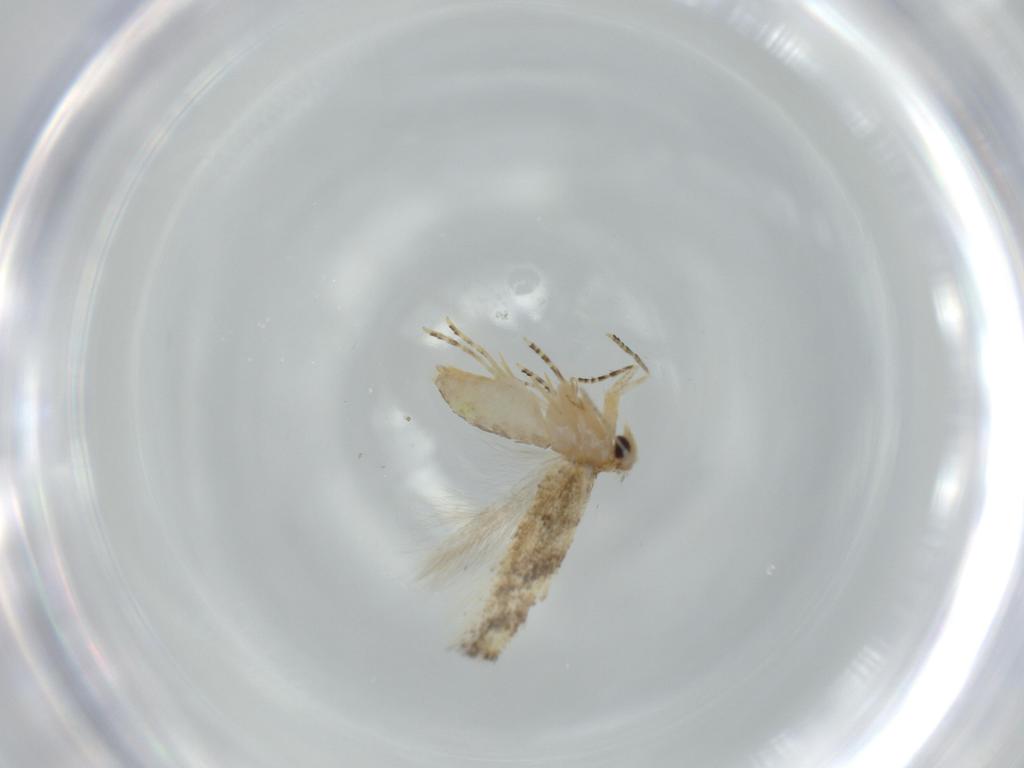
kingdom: Animalia
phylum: Arthropoda
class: Insecta
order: Lepidoptera
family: Bucculatricidae
